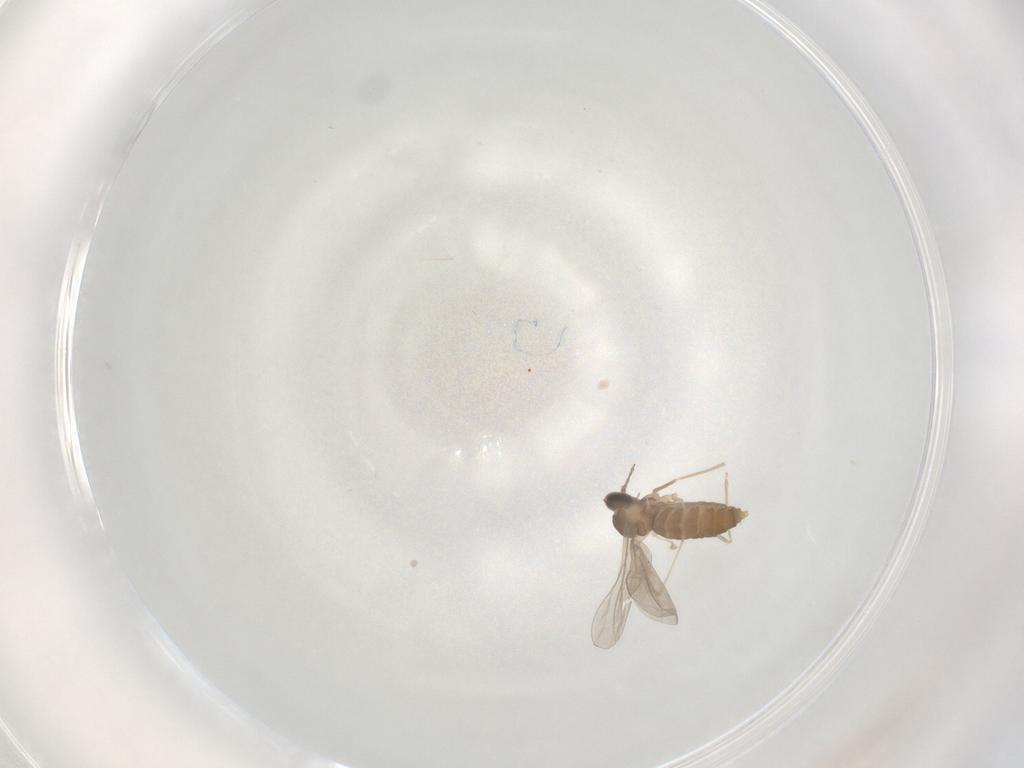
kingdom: Animalia
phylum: Arthropoda
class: Insecta
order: Diptera
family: Cecidomyiidae
